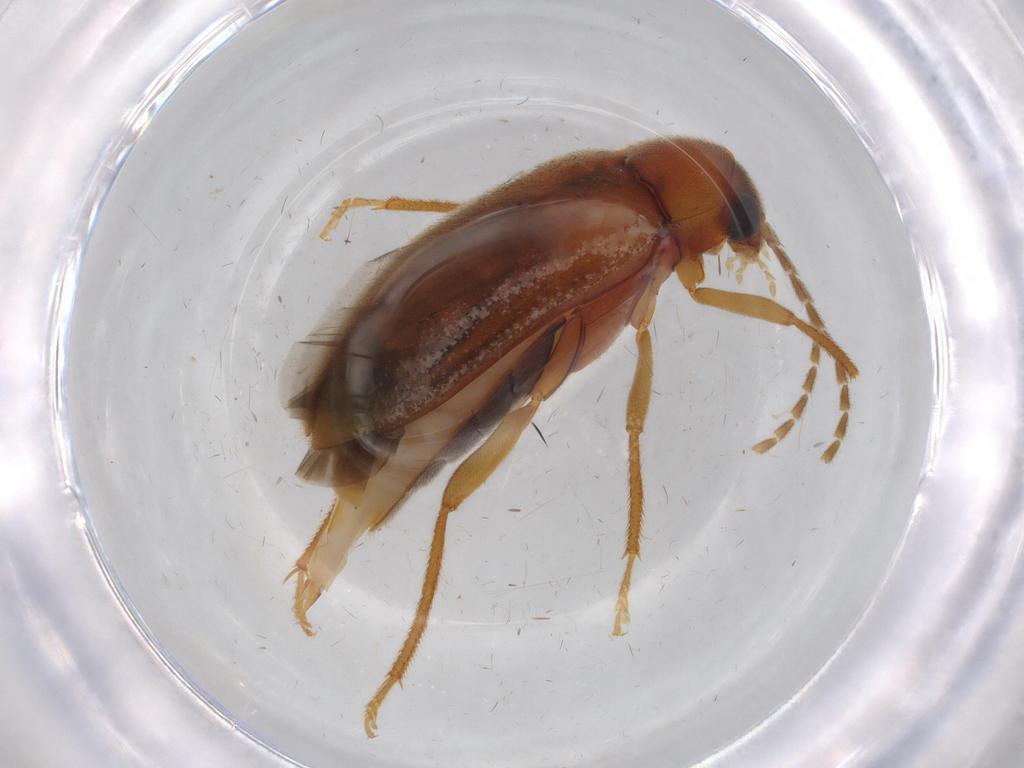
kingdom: Animalia
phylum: Arthropoda
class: Insecta
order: Coleoptera
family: Ptilodactylidae
